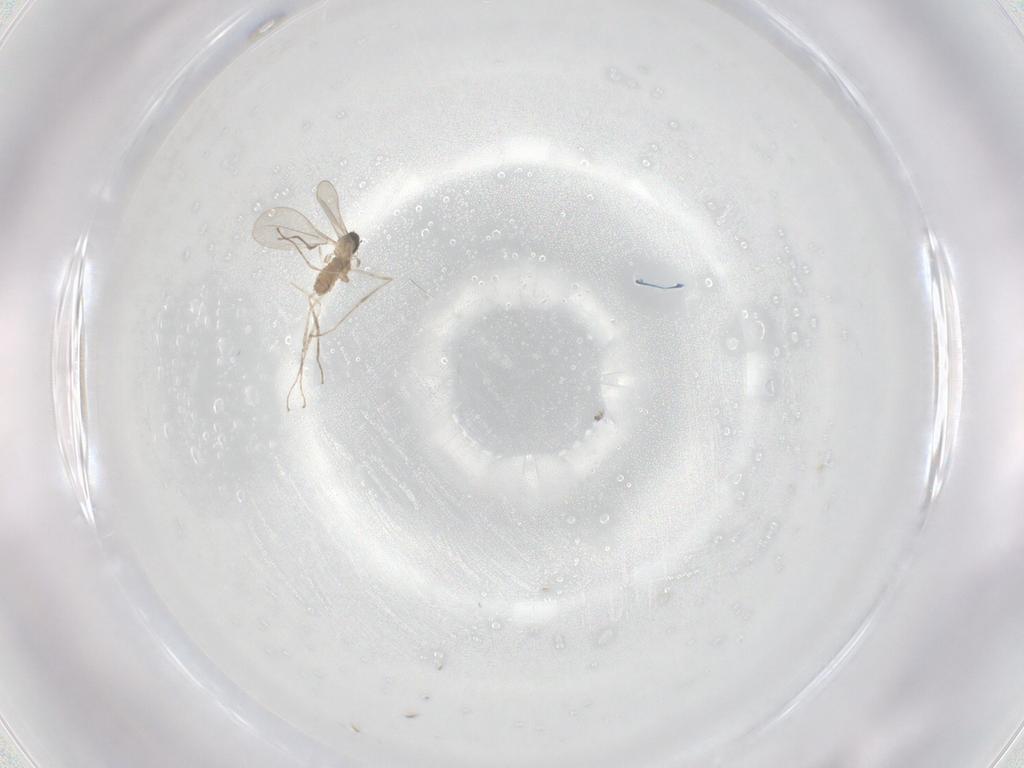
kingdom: Animalia
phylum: Arthropoda
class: Insecta
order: Diptera
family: Cecidomyiidae
